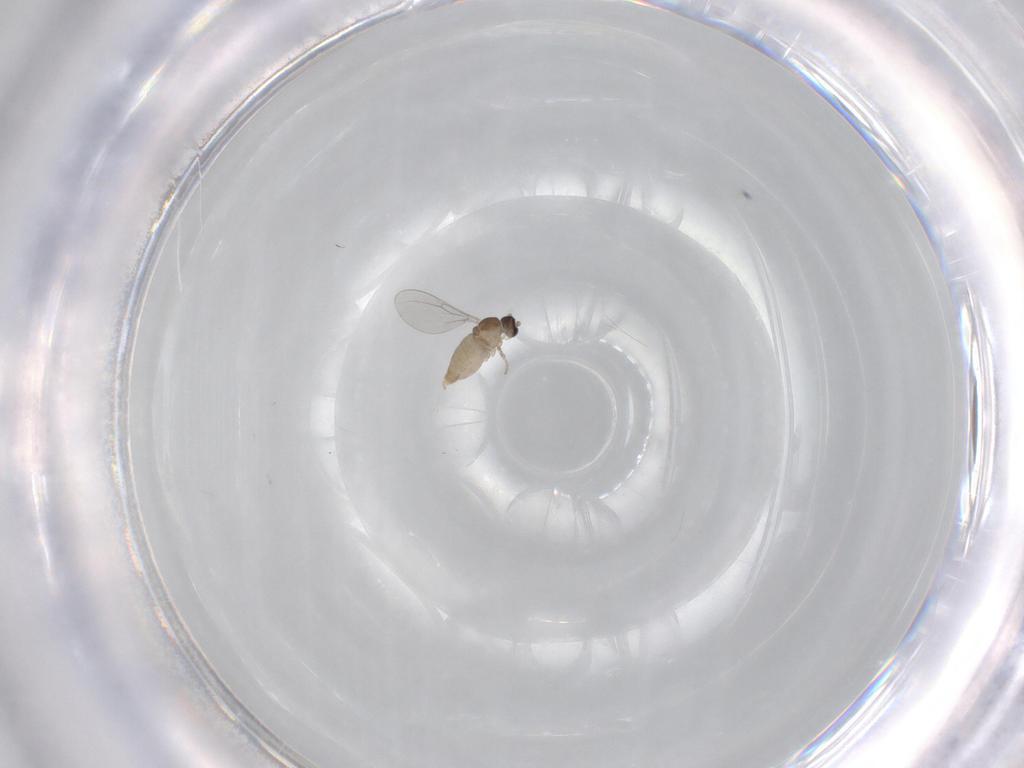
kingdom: Animalia
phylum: Arthropoda
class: Insecta
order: Diptera
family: Cecidomyiidae
